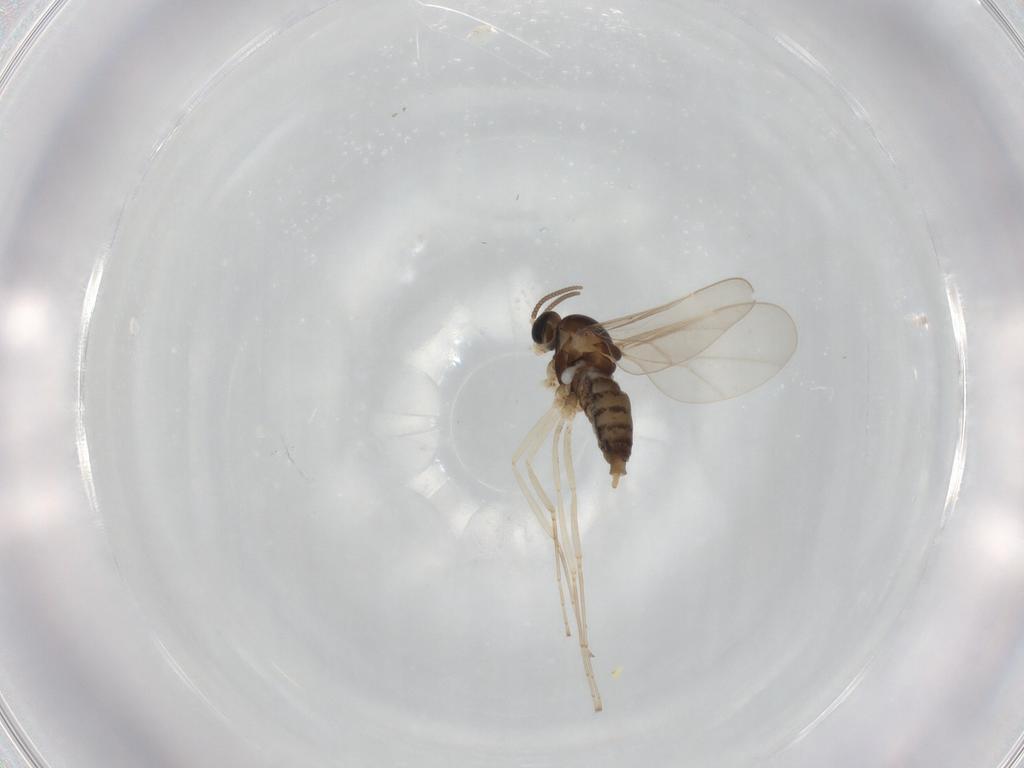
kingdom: Animalia
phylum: Arthropoda
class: Insecta
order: Diptera
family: Cecidomyiidae
